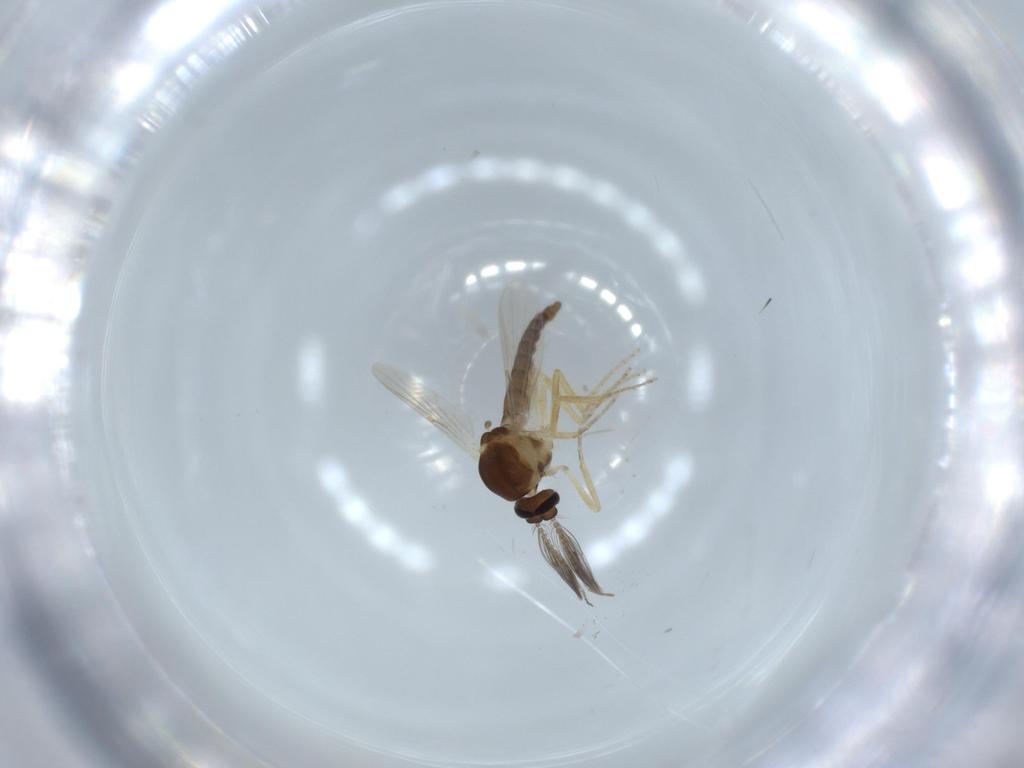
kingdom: Animalia
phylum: Arthropoda
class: Insecta
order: Diptera
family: Ceratopogonidae
